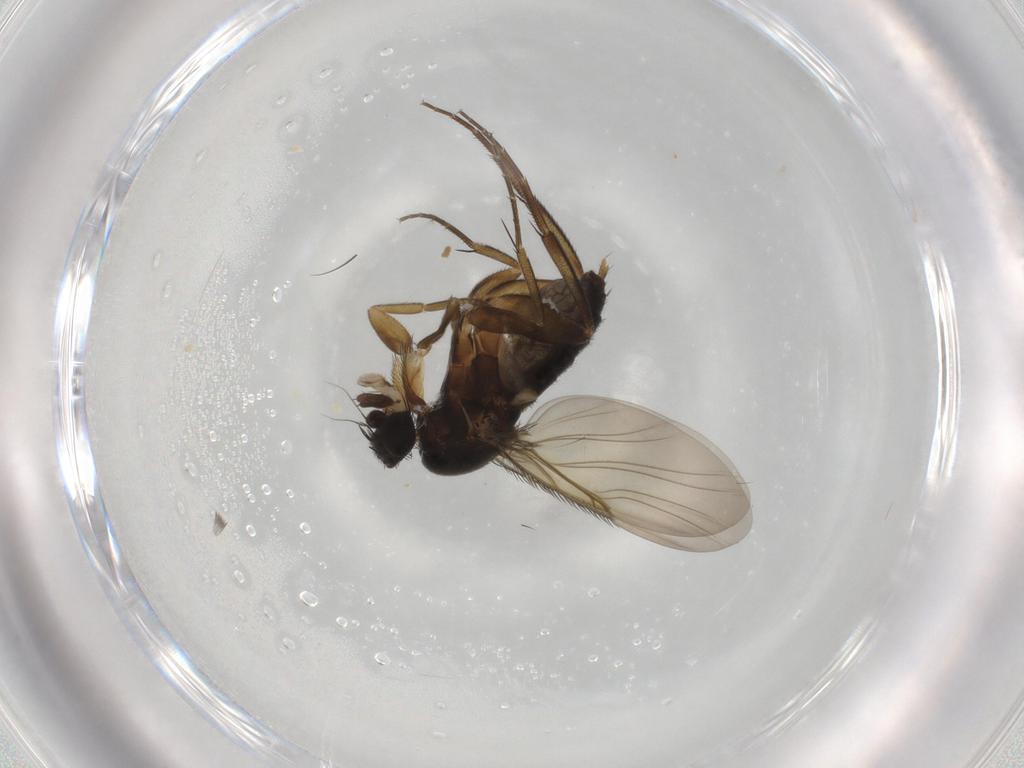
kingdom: Animalia
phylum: Arthropoda
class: Insecta
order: Diptera
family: Phoridae
